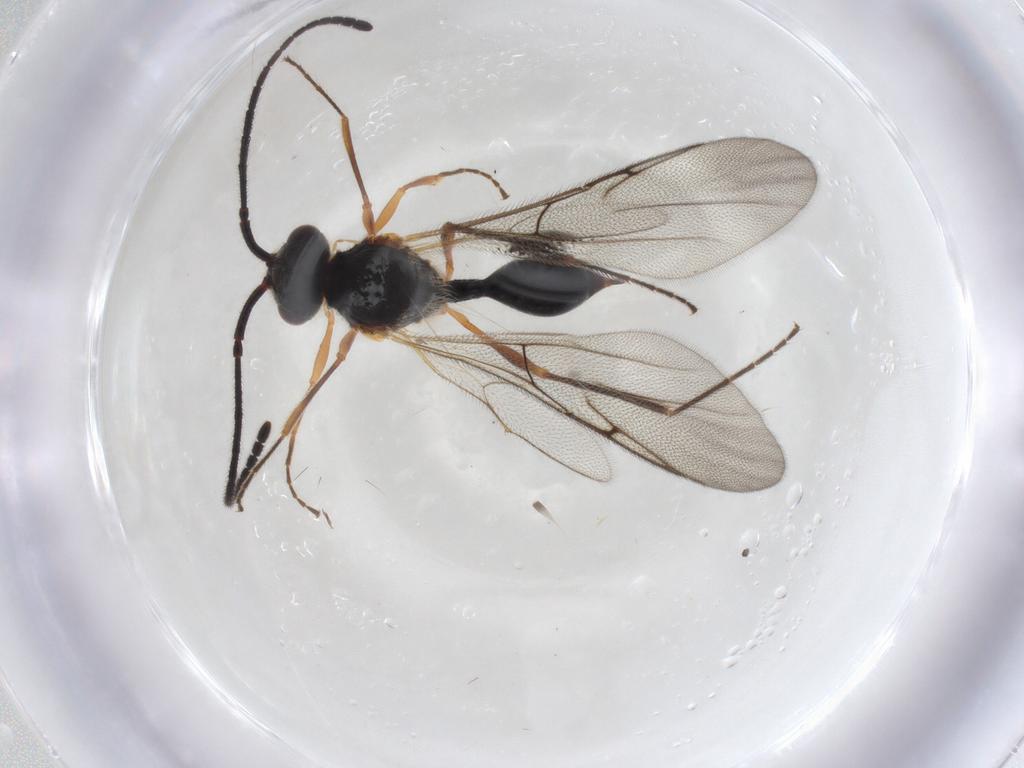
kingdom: Animalia
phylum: Arthropoda
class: Insecta
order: Hymenoptera
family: Diapriidae
